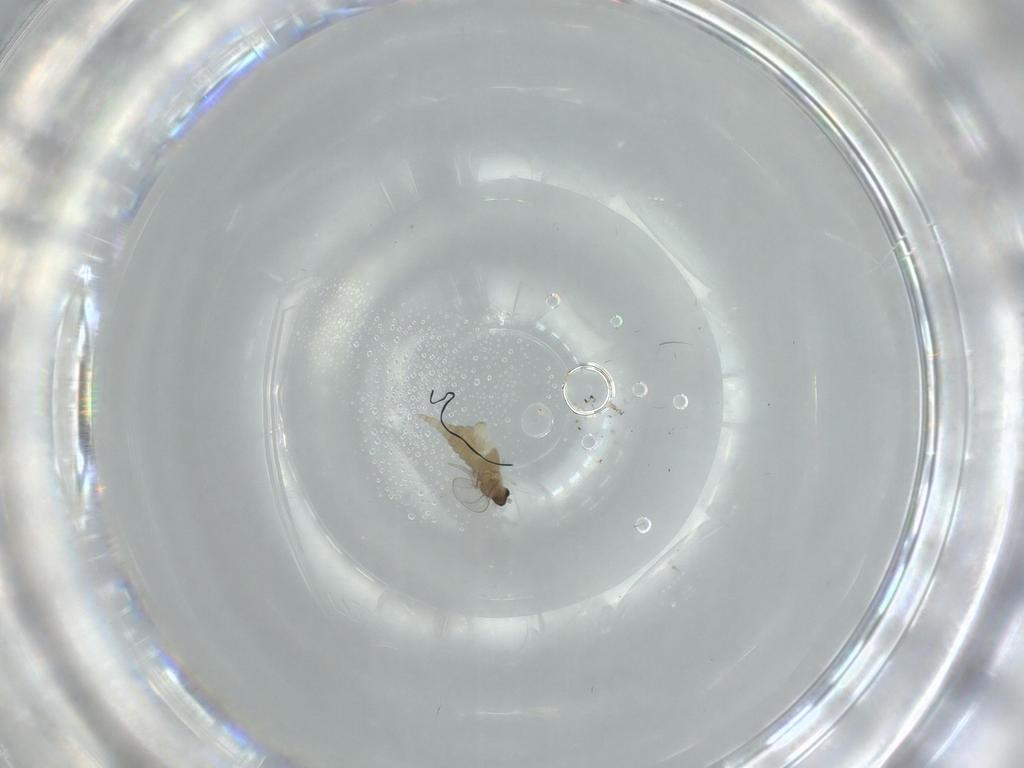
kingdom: Animalia
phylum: Arthropoda
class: Insecta
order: Diptera
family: Cecidomyiidae
